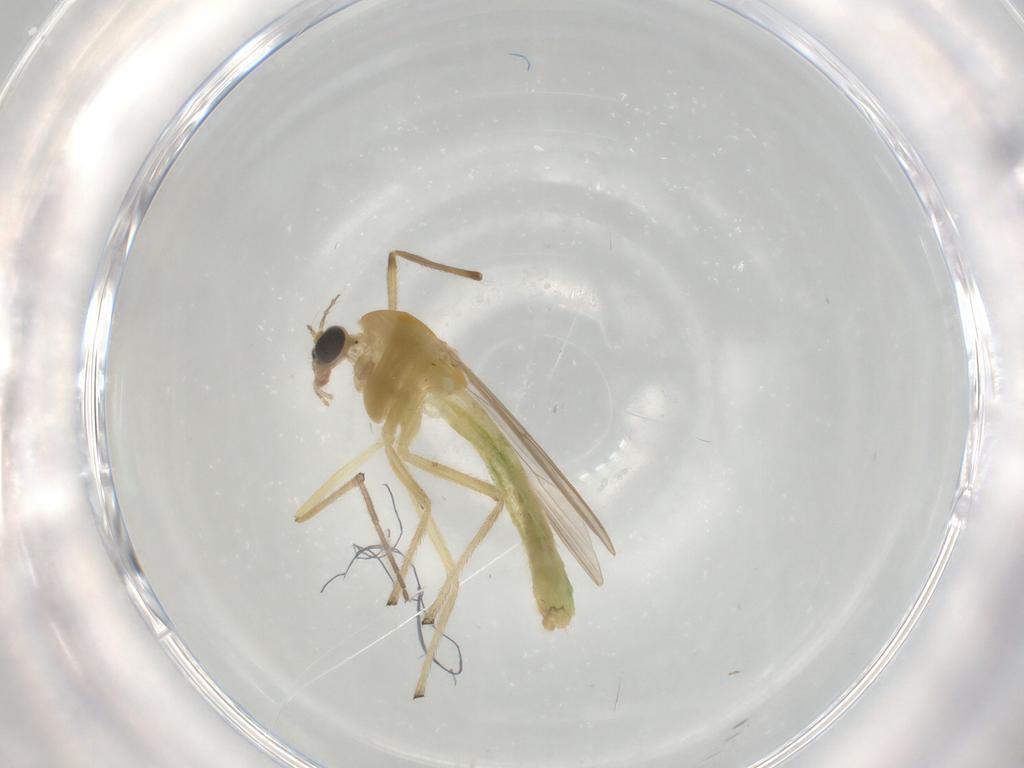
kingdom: Animalia
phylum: Arthropoda
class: Insecta
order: Diptera
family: Chironomidae
